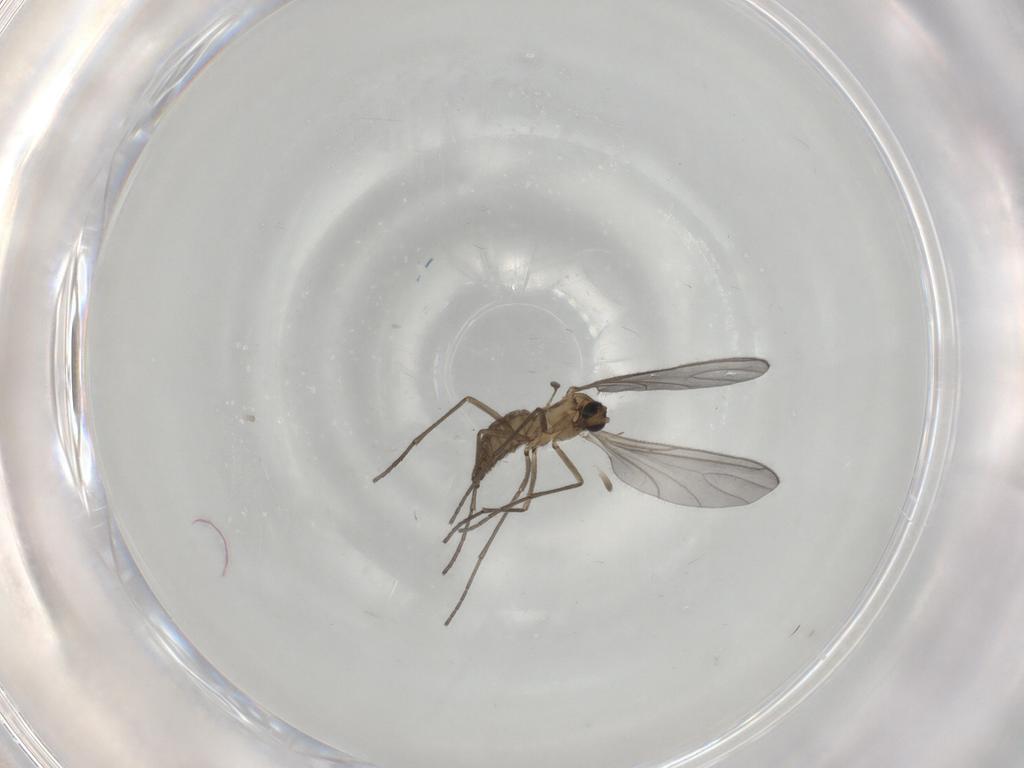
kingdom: Animalia
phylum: Arthropoda
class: Insecta
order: Diptera
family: Sciaridae
